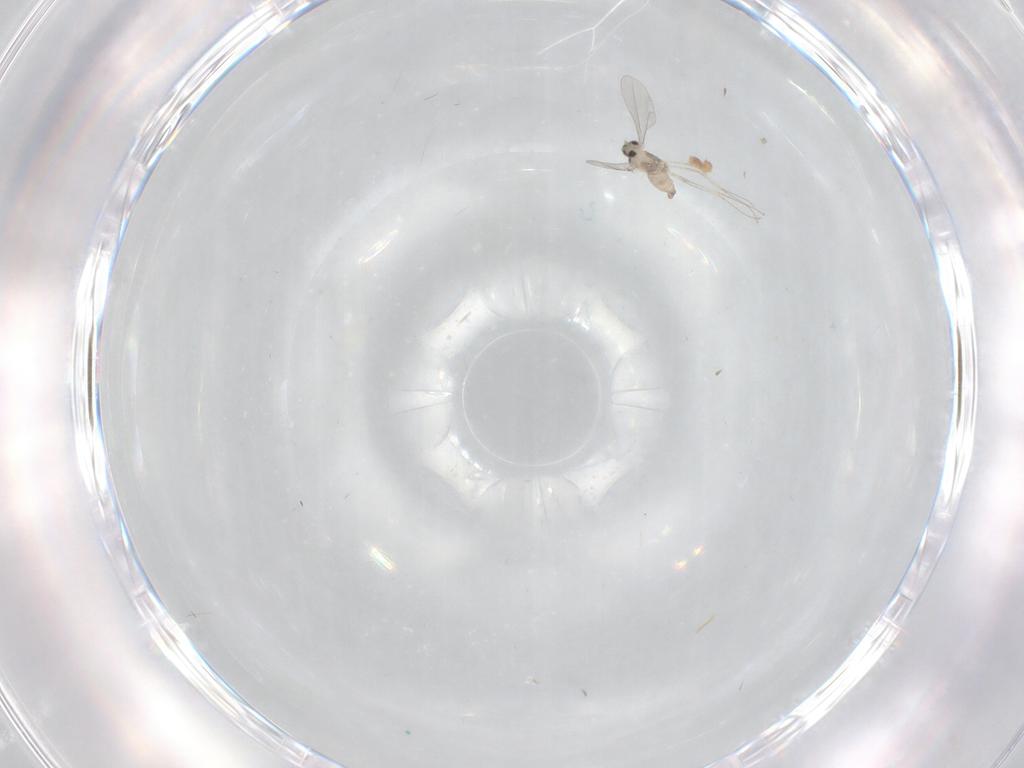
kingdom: Animalia
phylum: Arthropoda
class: Insecta
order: Diptera
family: Cecidomyiidae
